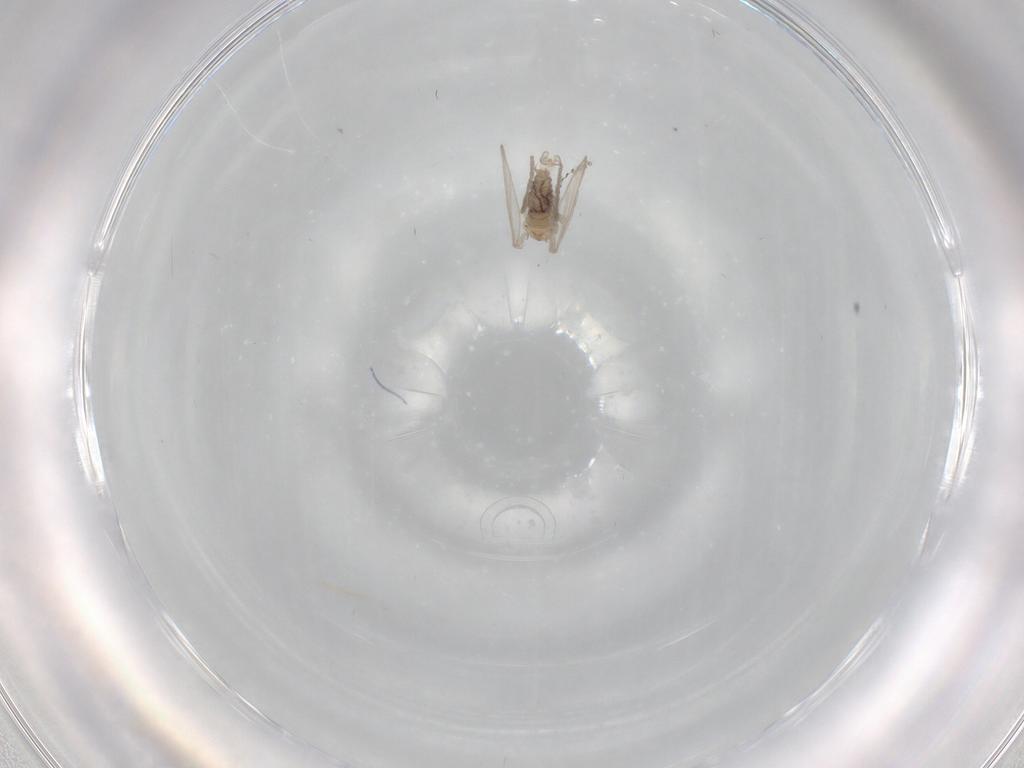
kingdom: Animalia
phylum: Arthropoda
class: Insecta
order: Diptera
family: Psychodidae
